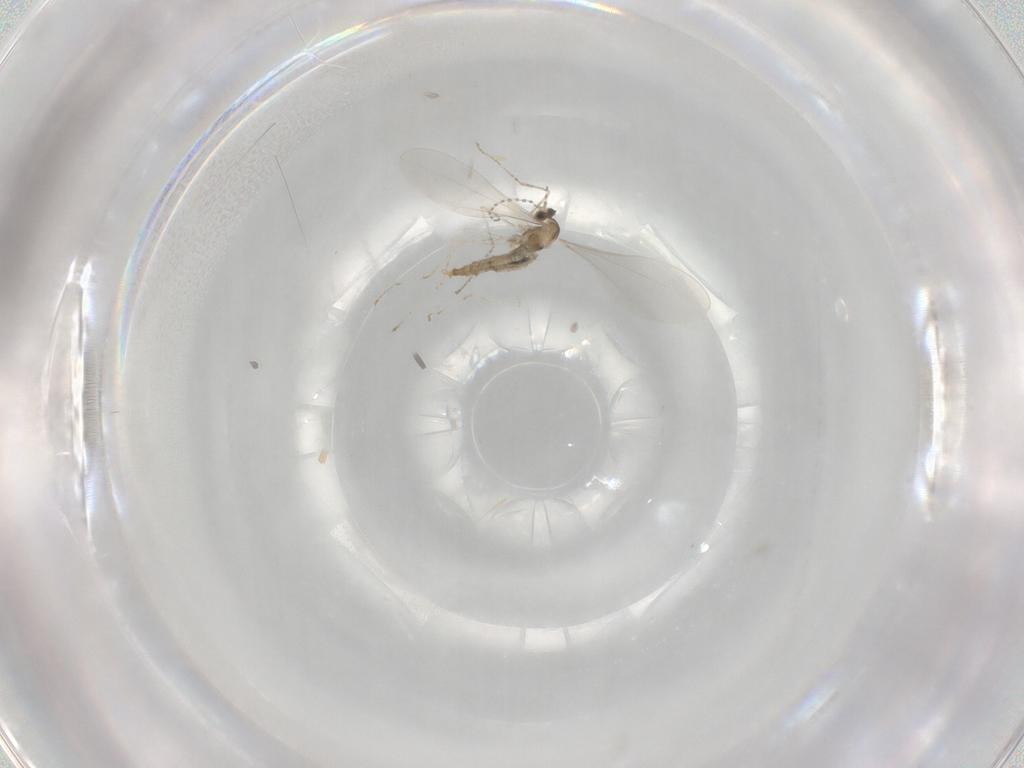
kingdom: Animalia
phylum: Arthropoda
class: Insecta
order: Diptera
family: Cecidomyiidae
